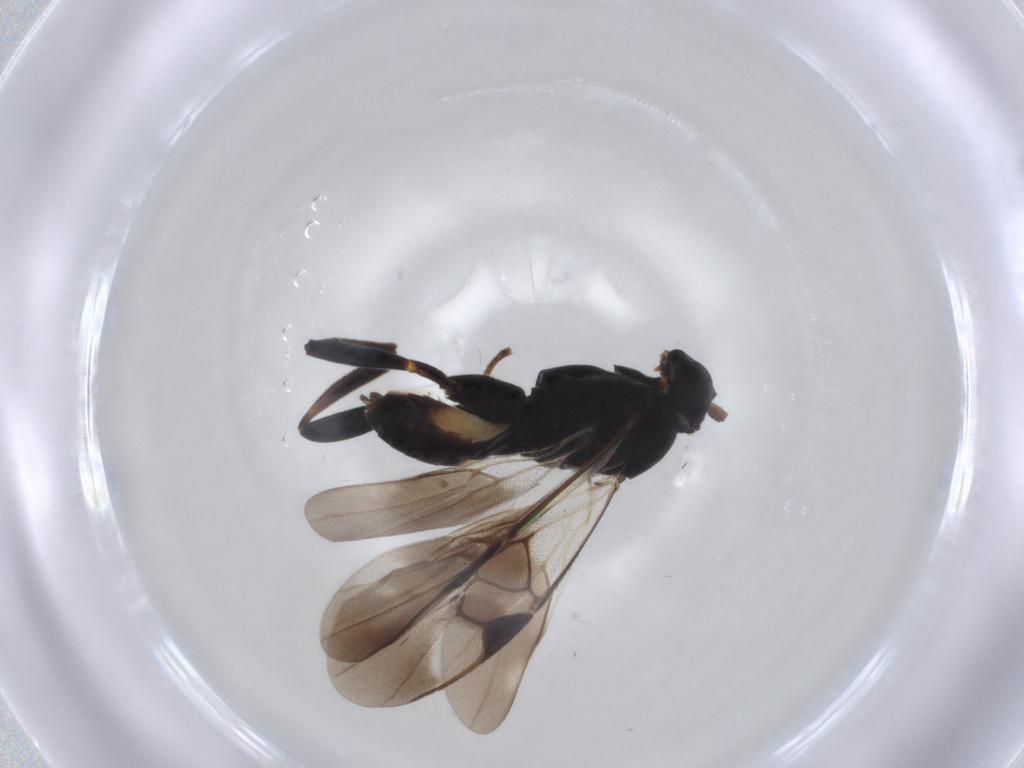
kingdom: Animalia
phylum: Arthropoda
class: Insecta
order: Hymenoptera
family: Braconidae
